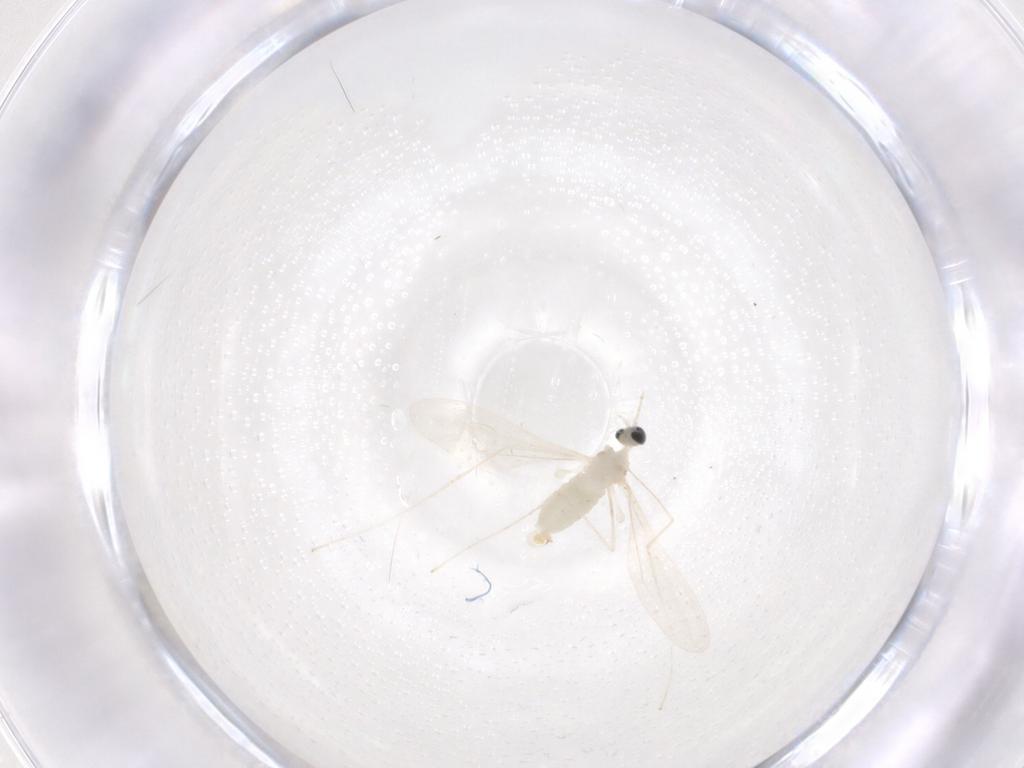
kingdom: Animalia
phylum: Arthropoda
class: Insecta
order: Diptera
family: Cecidomyiidae
